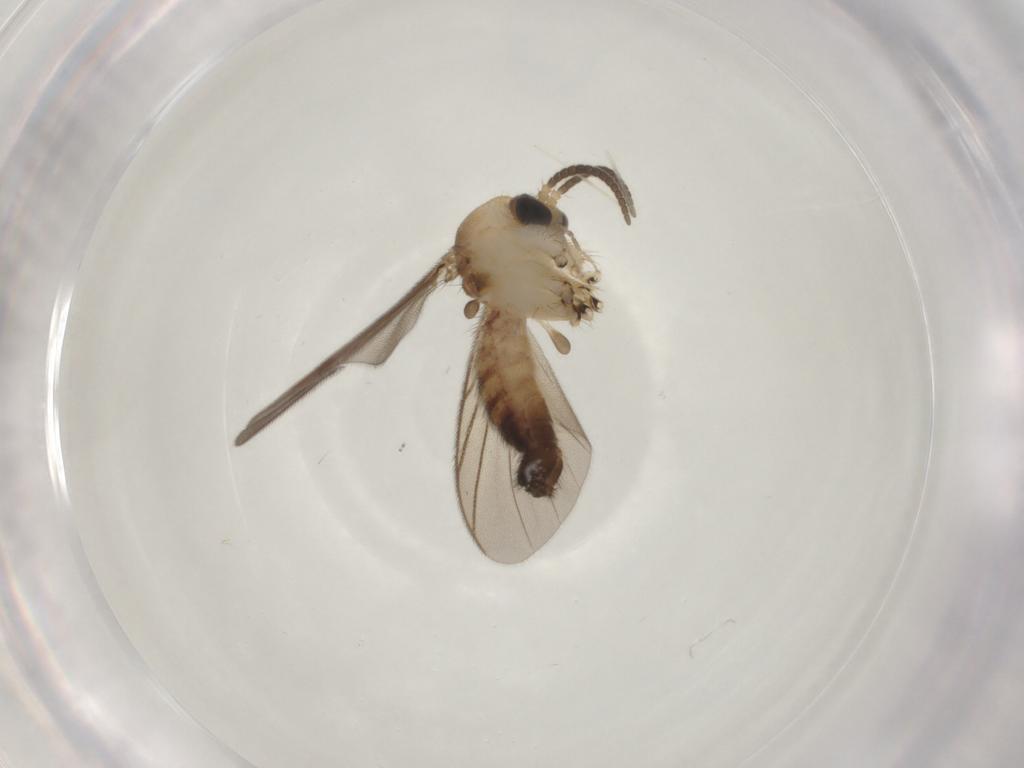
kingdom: Animalia
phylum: Arthropoda
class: Insecta
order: Diptera
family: Mycetophilidae
